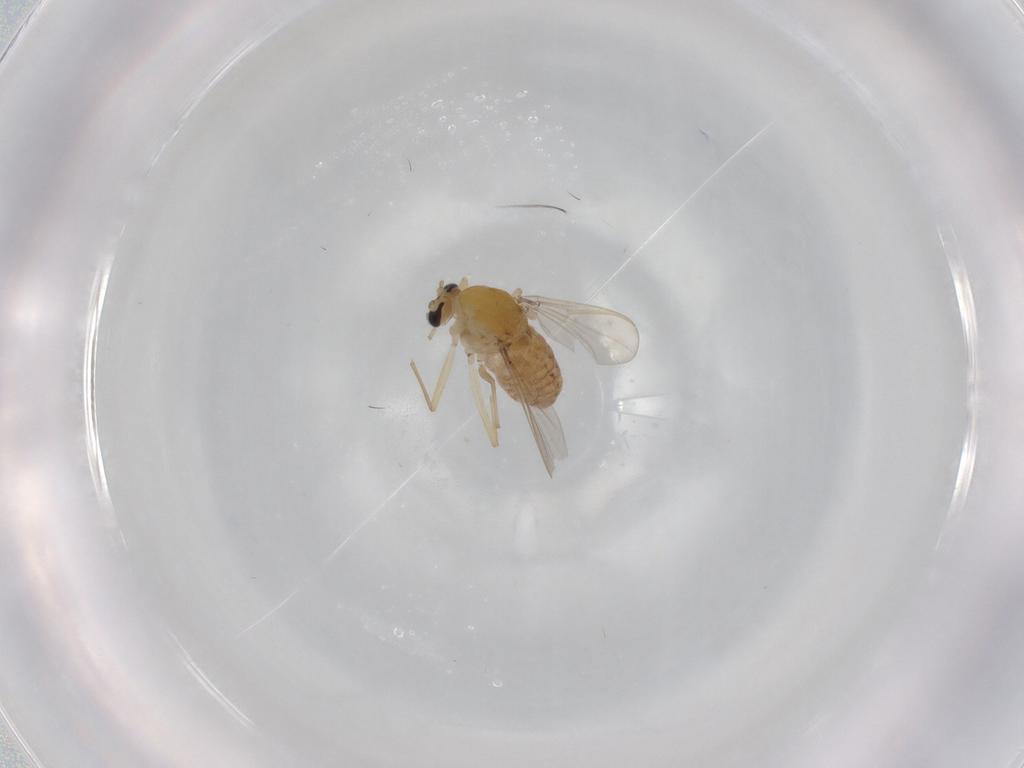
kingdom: Animalia
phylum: Arthropoda
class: Insecta
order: Diptera
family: Chironomidae
